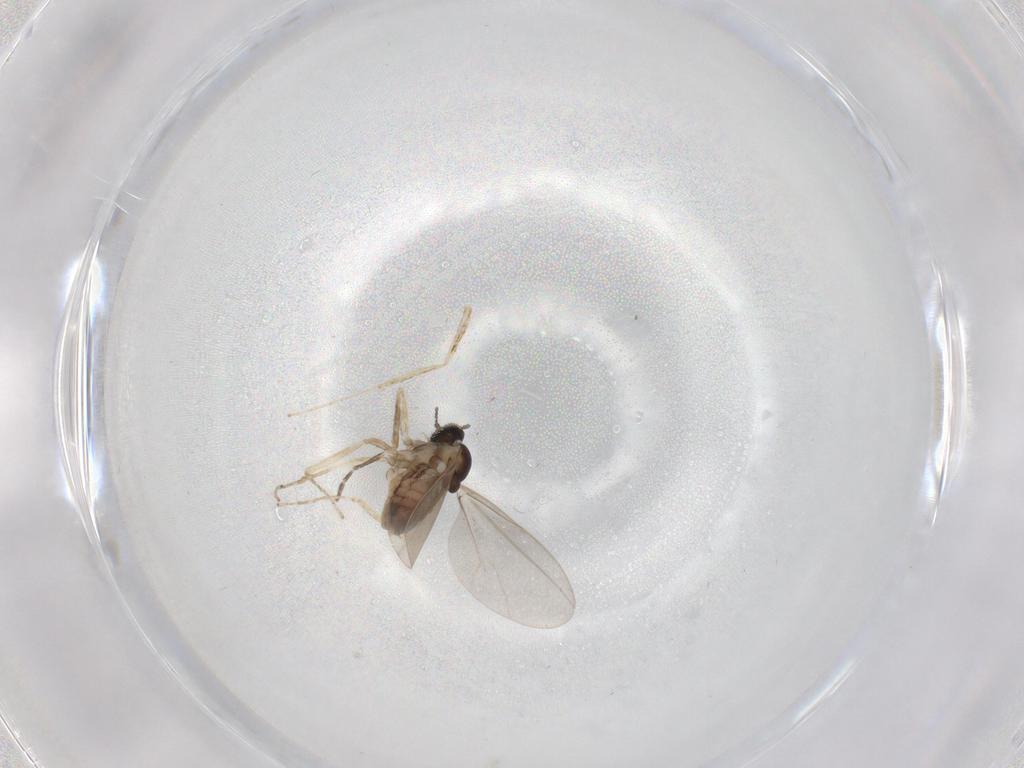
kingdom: Animalia
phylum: Arthropoda
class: Insecta
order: Diptera
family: Cecidomyiidae
